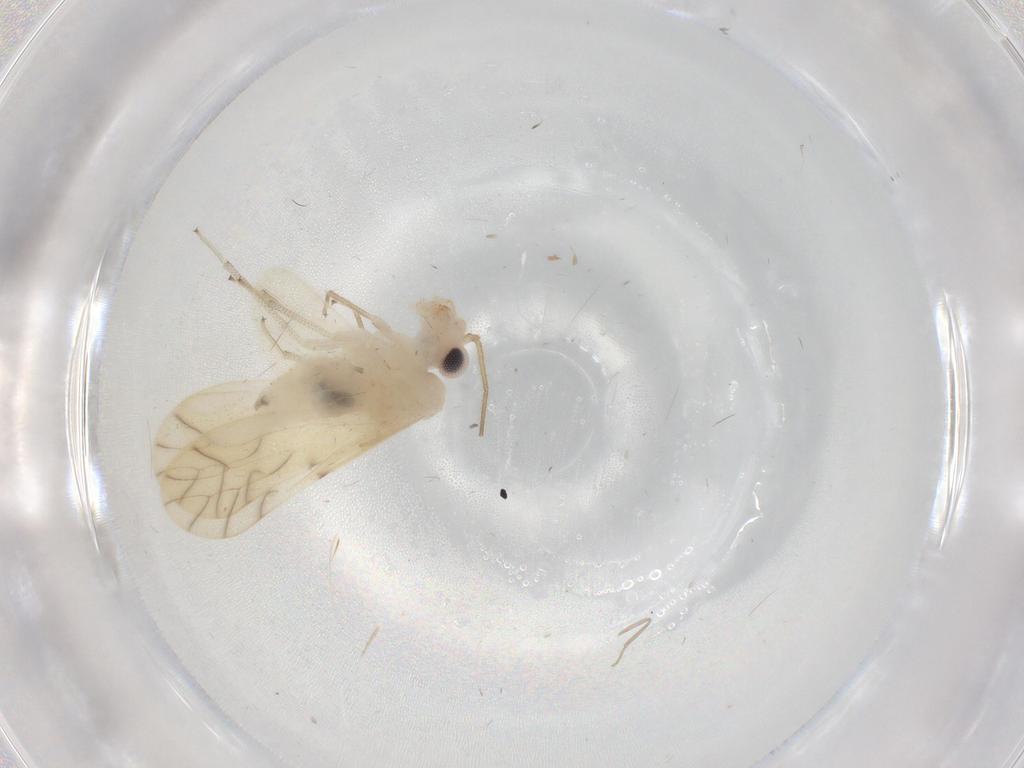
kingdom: Animalia
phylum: Arthropoda
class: Insecta
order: Psocodea
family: Caeciliusidae
